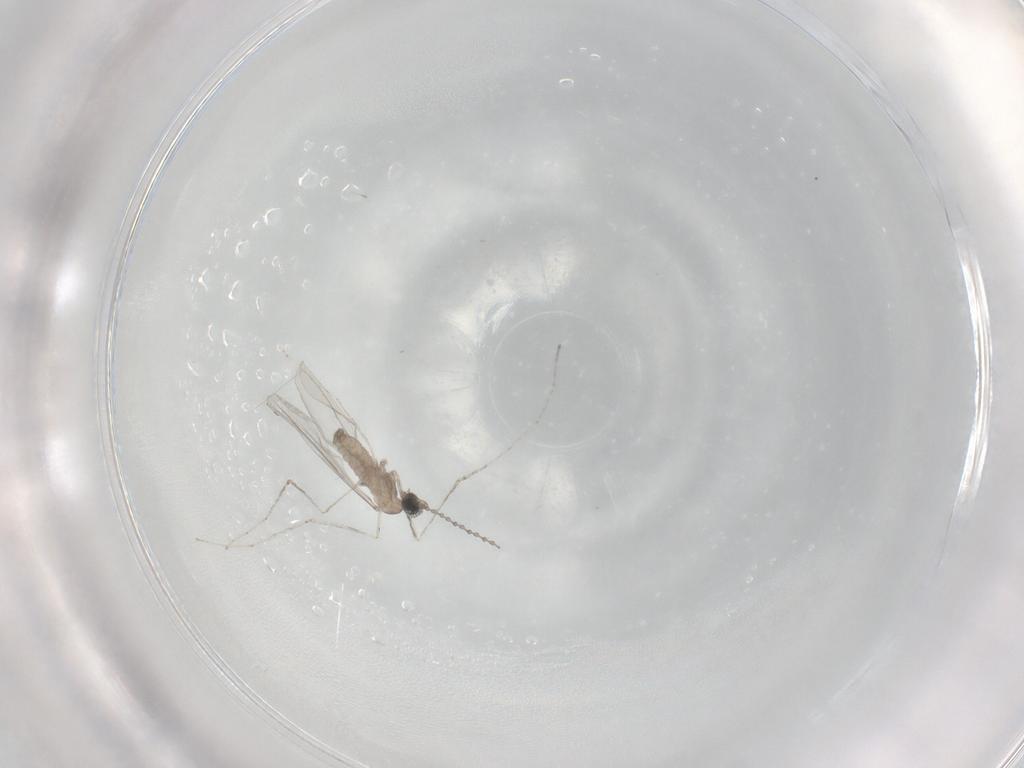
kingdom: Animalia
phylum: Arthropoda
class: Insecta
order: Diptera
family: Cecidomyiidae
